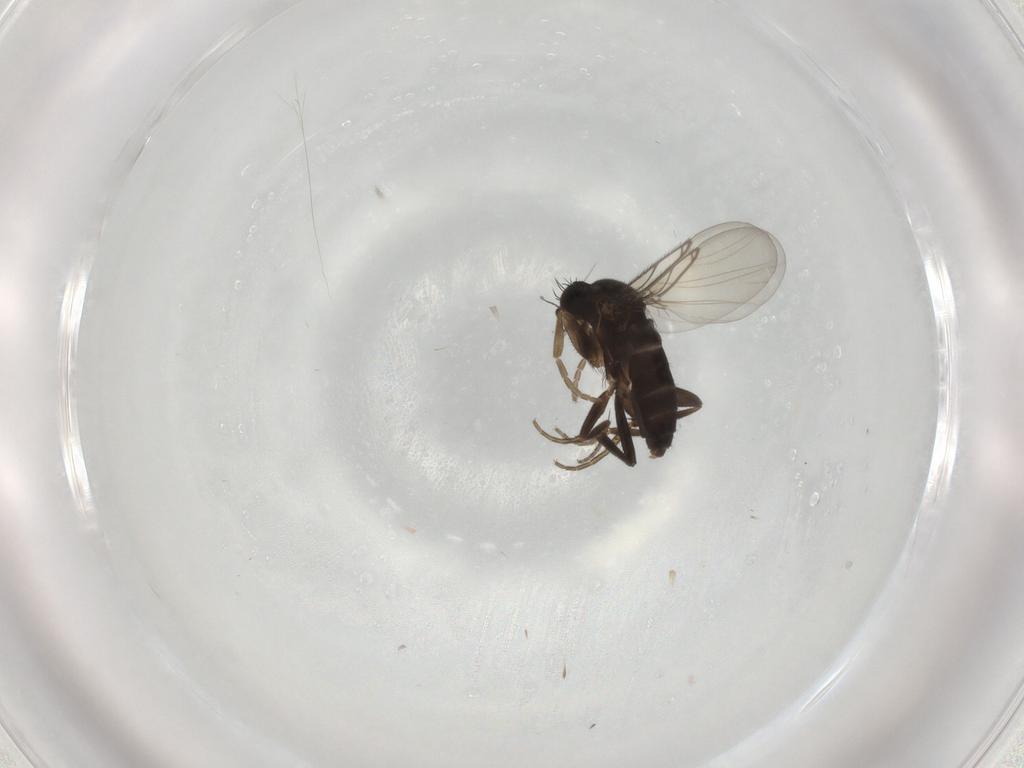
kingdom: Animalia
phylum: Arthropoda
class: Insecta
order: Diptera
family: Phoridae
